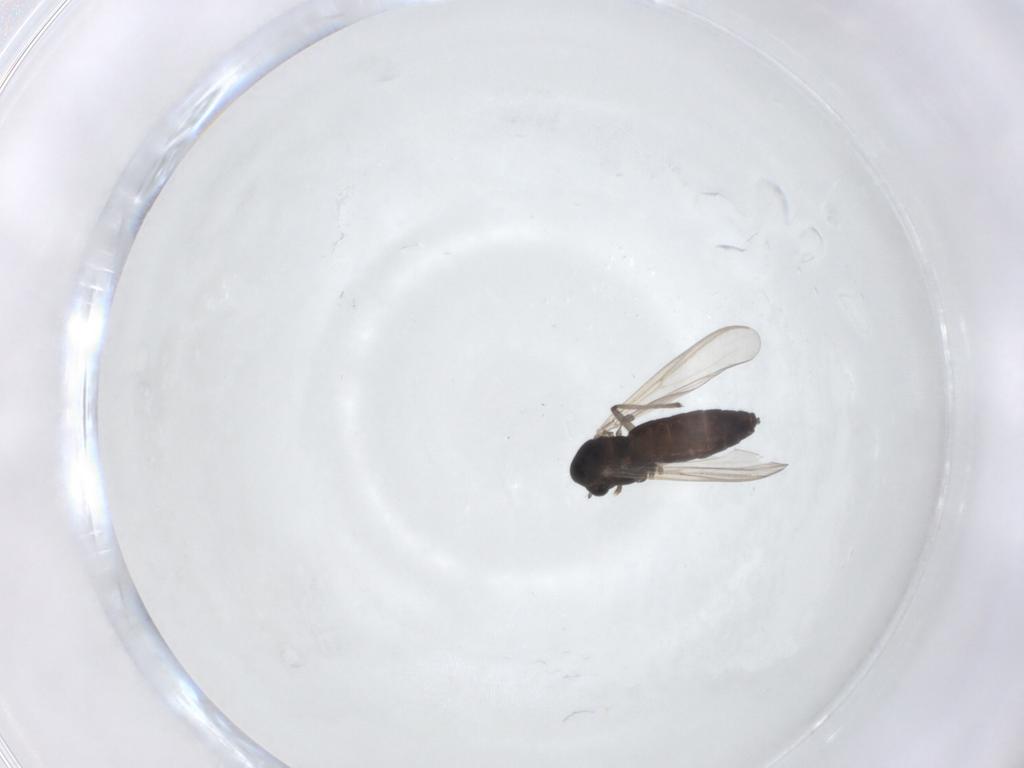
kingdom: Animalia
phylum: Arthropoda
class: Insecta
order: Diptera
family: Chironomidae
